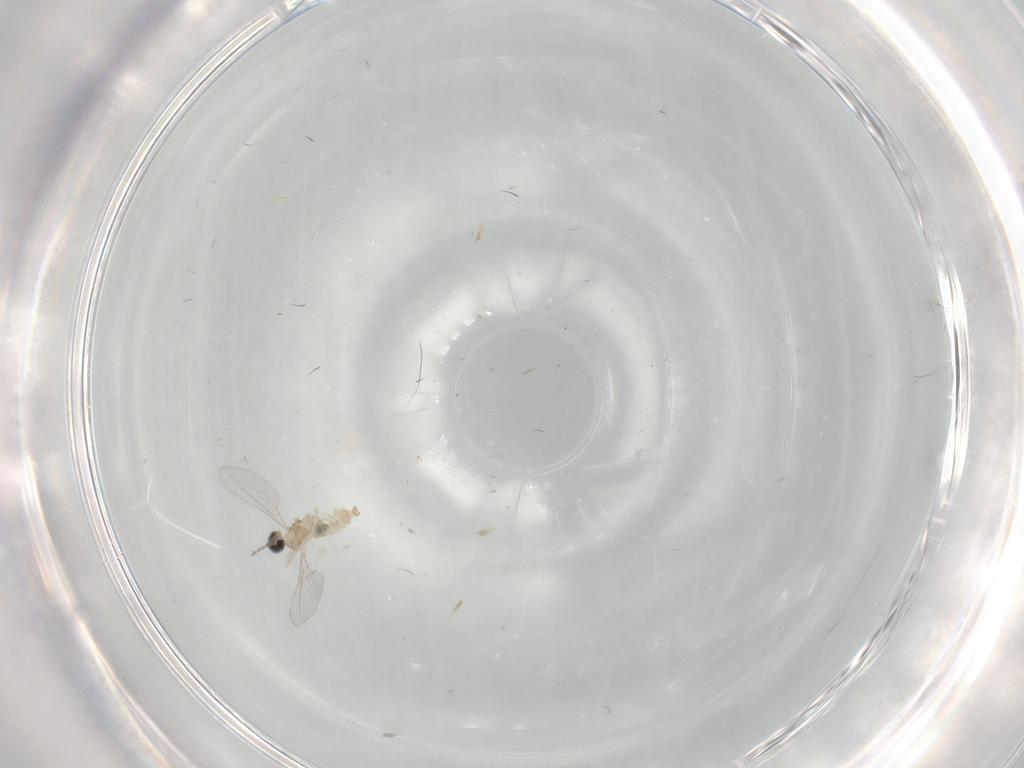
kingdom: Animalia
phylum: Arthropoda
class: Insecta
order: Diptera
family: Cecidomyiidae
